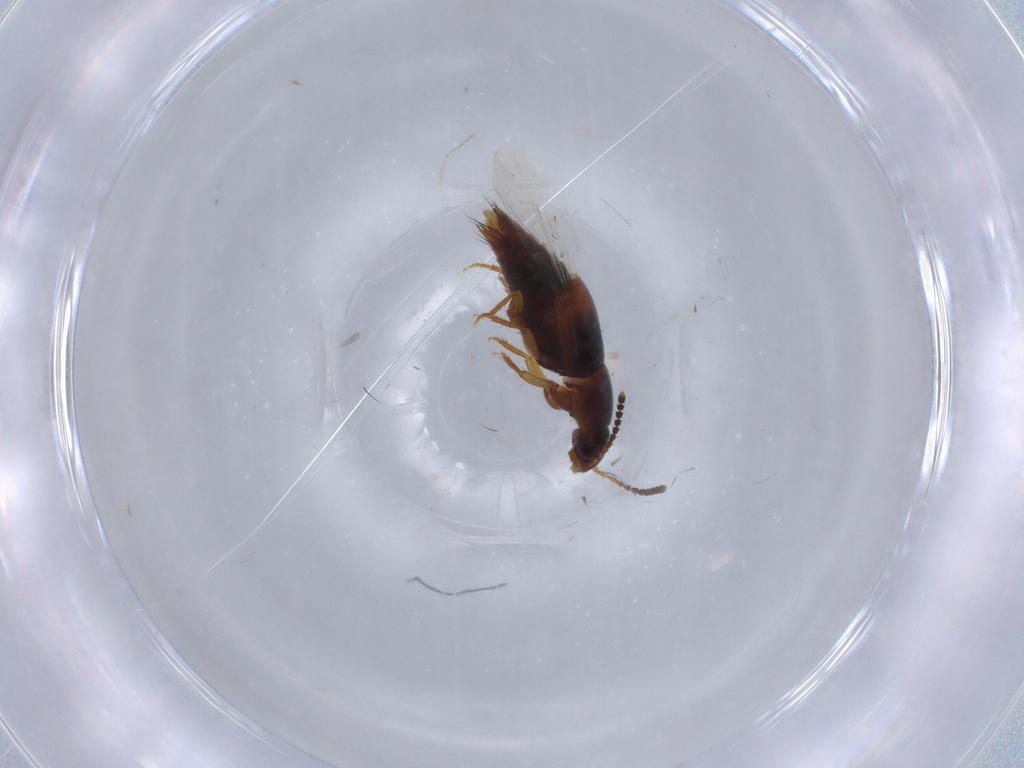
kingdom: Animalia
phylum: Arthropoda
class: Insecta
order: Coleoptera
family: Staphylinidae
